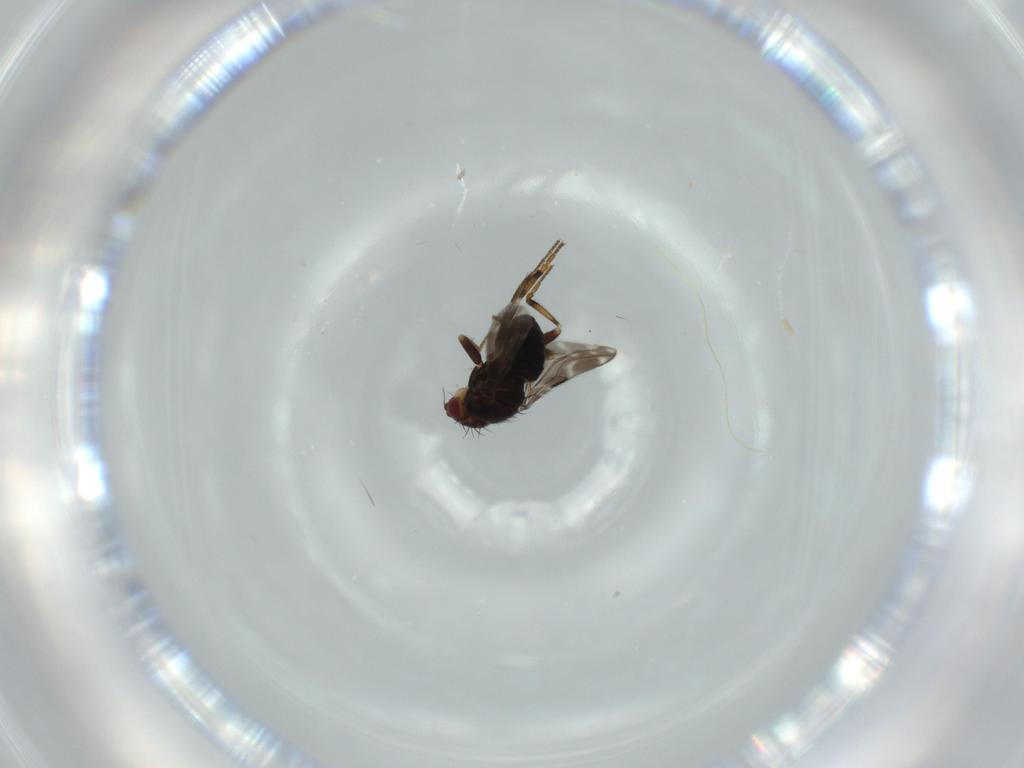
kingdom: Animalia
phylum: Arthropoda
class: Insecta
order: Diptera
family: Sphaeroceridae
